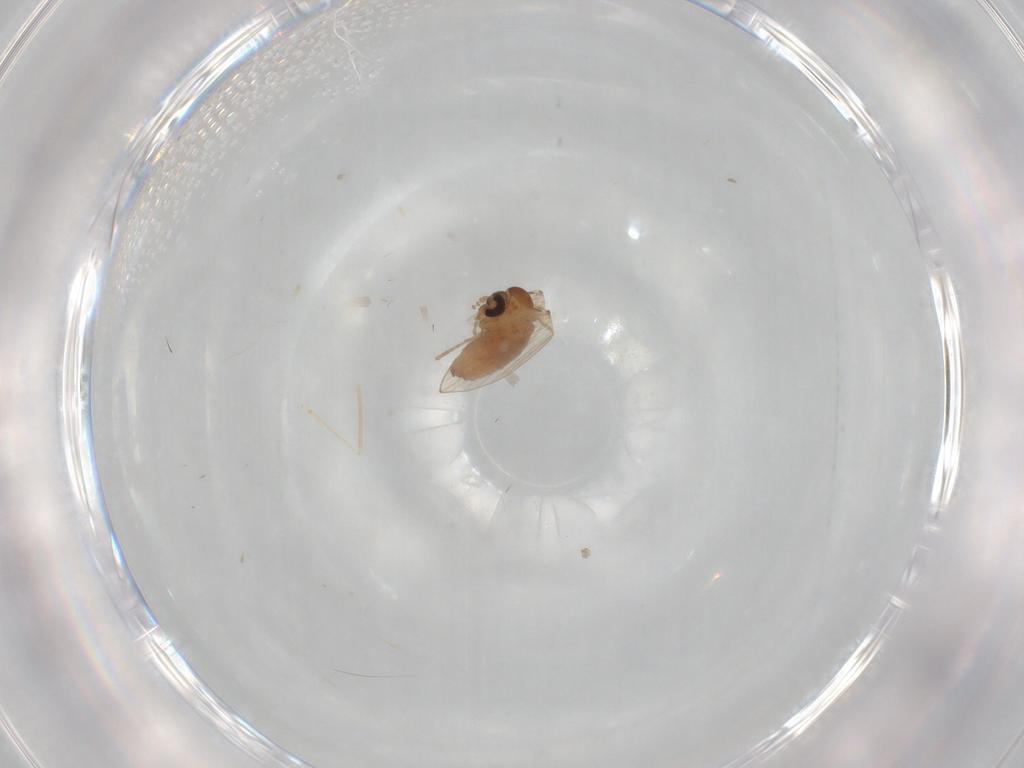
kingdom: Animalia
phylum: Arthropoda
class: Insecta
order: Diptera
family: Psychodidae
